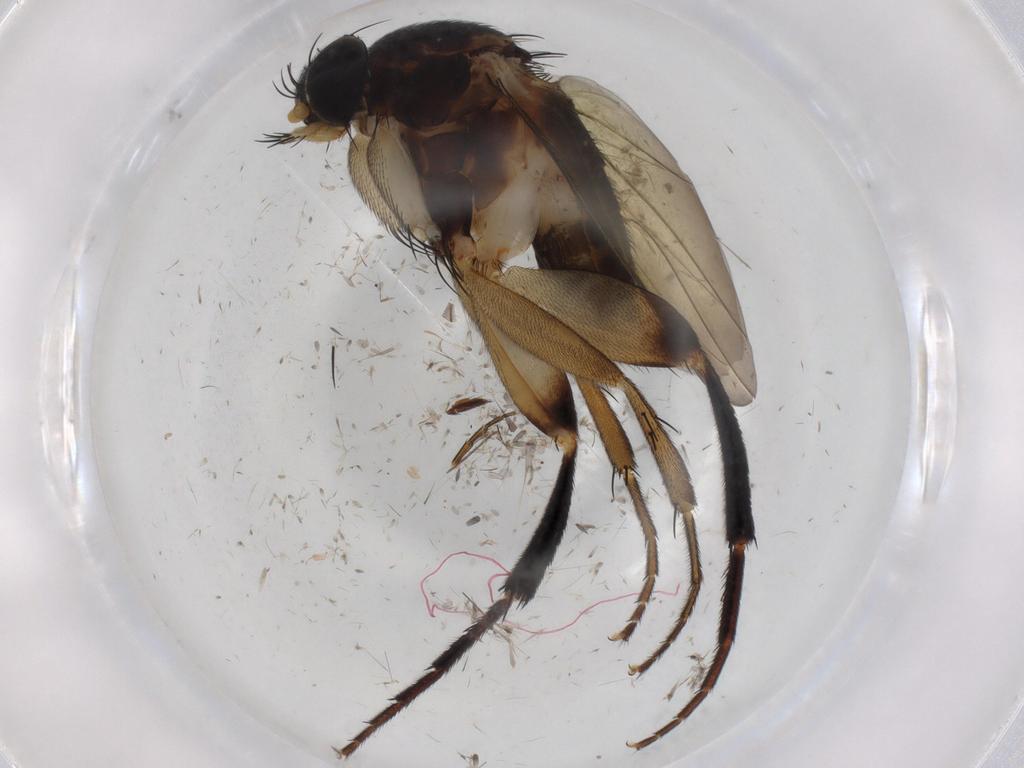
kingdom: Animalia
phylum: Arthropoda
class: Insecta
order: Diptera
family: Phoridae
